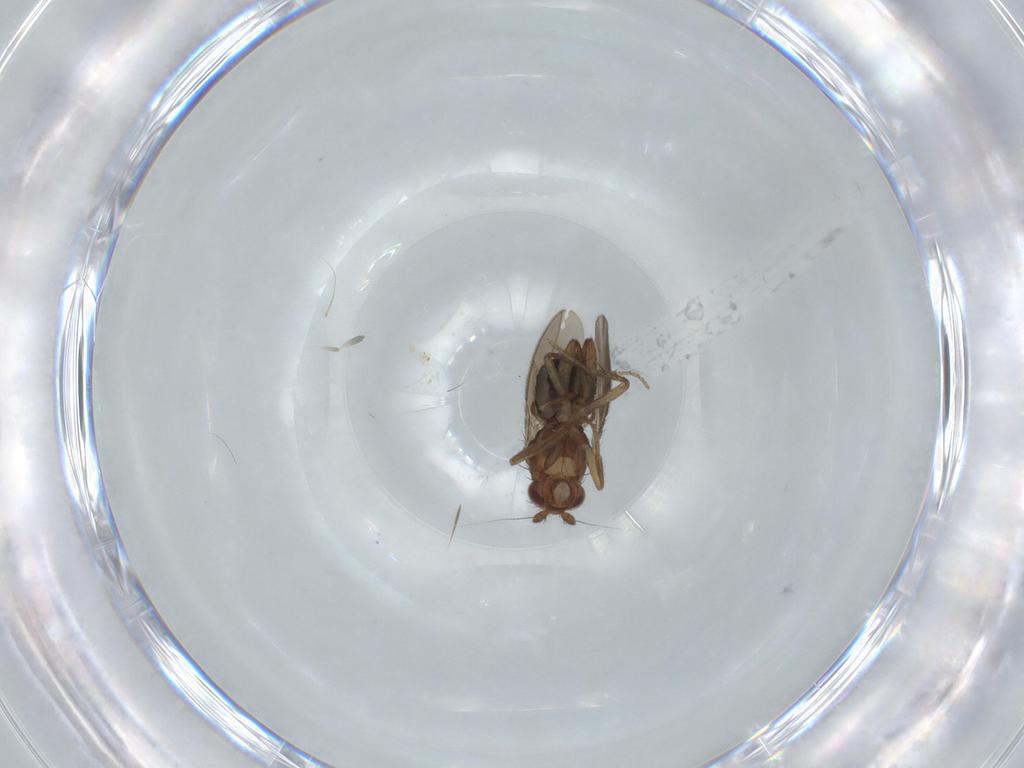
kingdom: Animalia
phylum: Arthropoda
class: Insecta
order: Diptera
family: Sphaeroceridae
